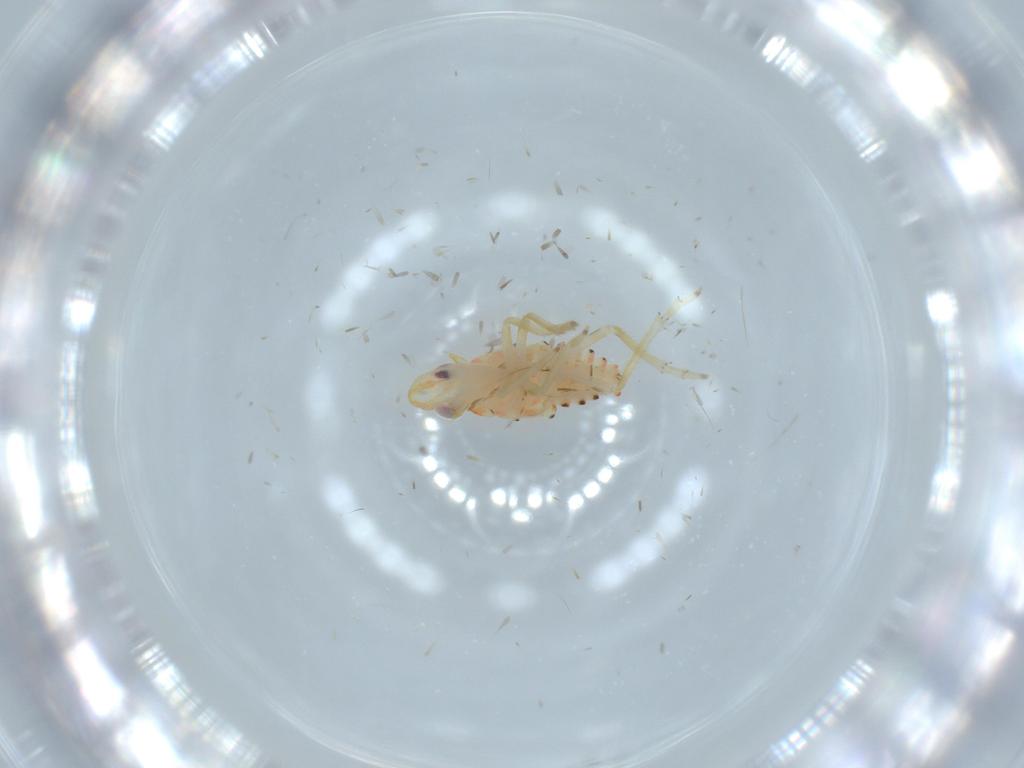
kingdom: Animalia
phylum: Arthropoda
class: Insecta
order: Hemiptera
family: Tropiduchidae
